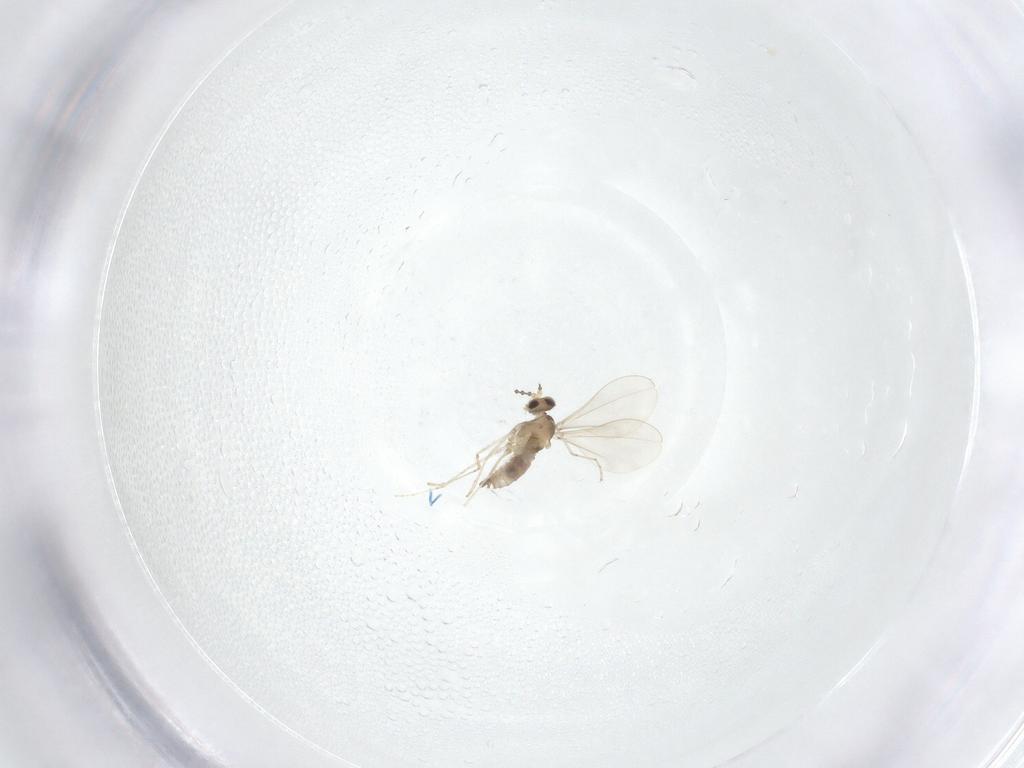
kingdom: Animalia
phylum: Arthropoda
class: Insecta
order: Diptera
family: Cecidomyiidae
